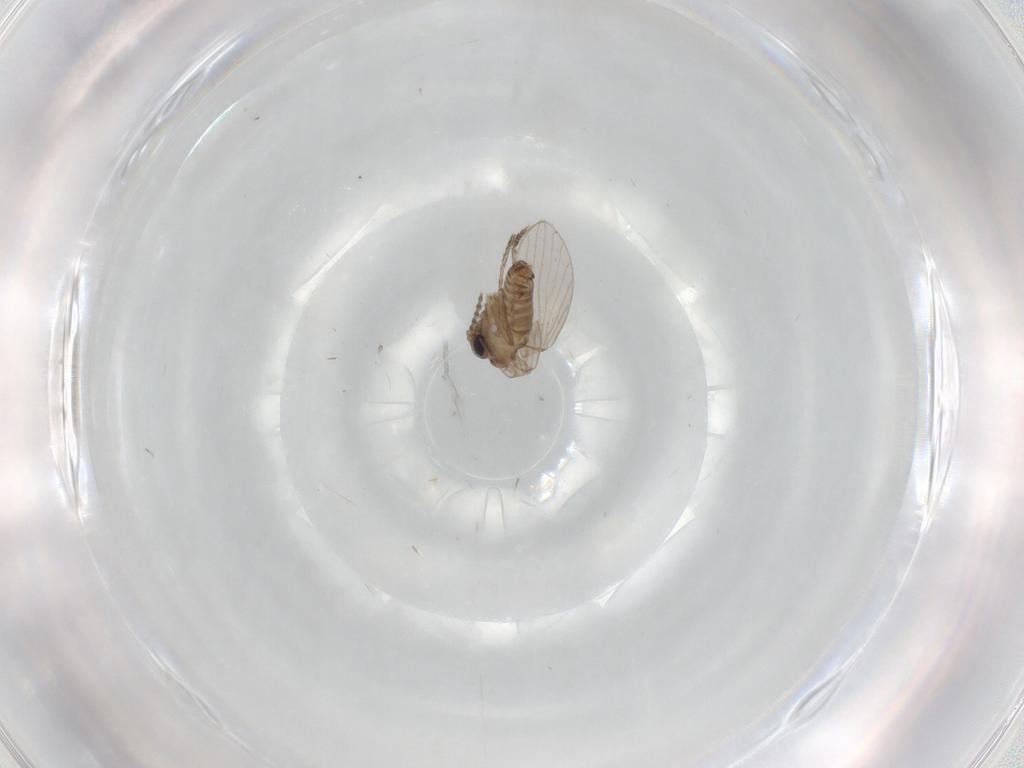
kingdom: Animalia
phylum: Arthropoda
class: Insecta
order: Diptera
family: Psychodidae
